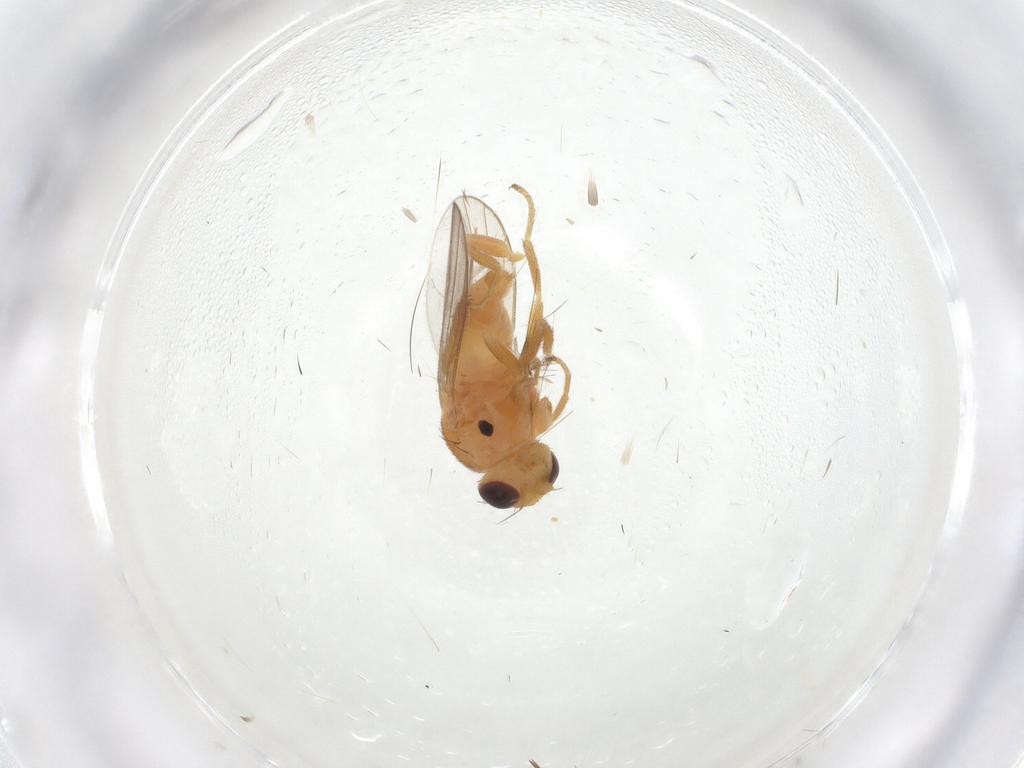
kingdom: Animalia
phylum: Arthropoda
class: Insecta
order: Diptera
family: Chloropidae
